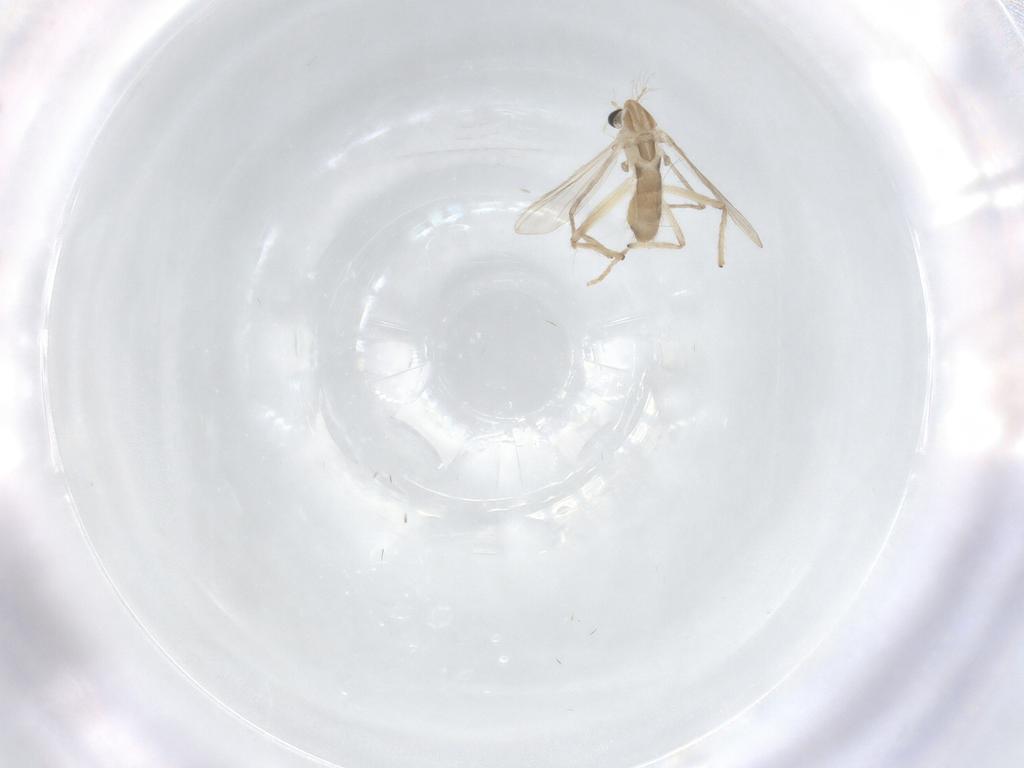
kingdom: Animalia
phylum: Arthropoda
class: Insecta
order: Diptera
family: Chironomidae
